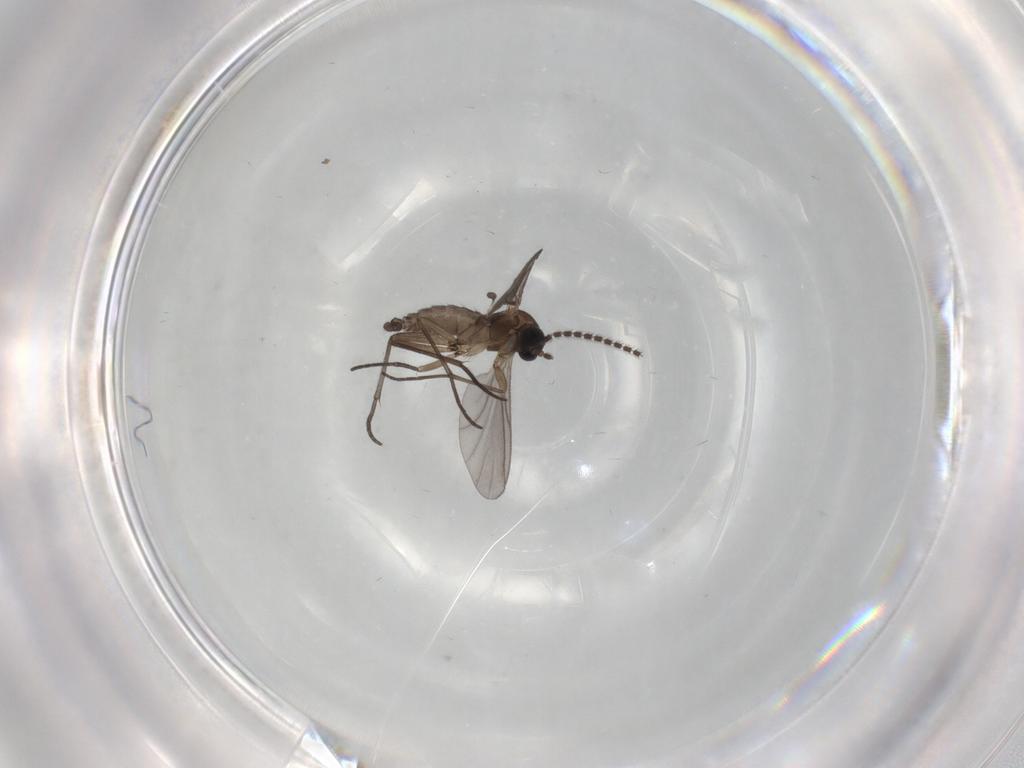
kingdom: Animalia
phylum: Arthropoda
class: Insecta
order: Diptera
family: Sciaridae
